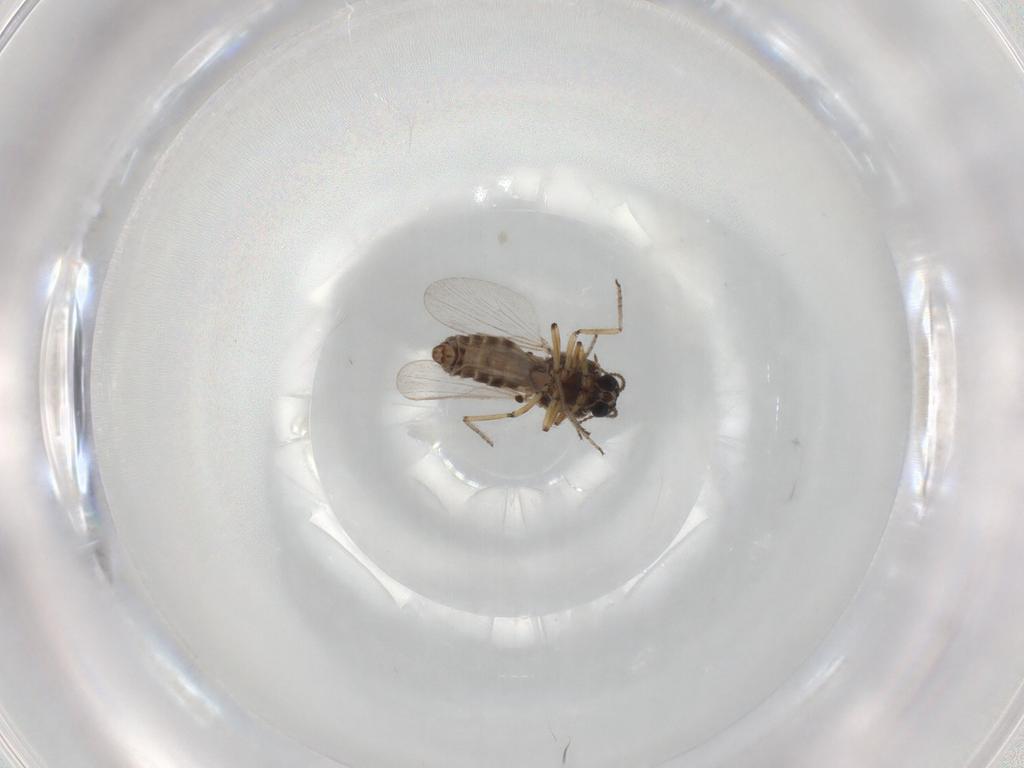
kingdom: Animalia
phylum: Arthropoda
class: Insecta
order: Diptera
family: Ceratopogonidae
